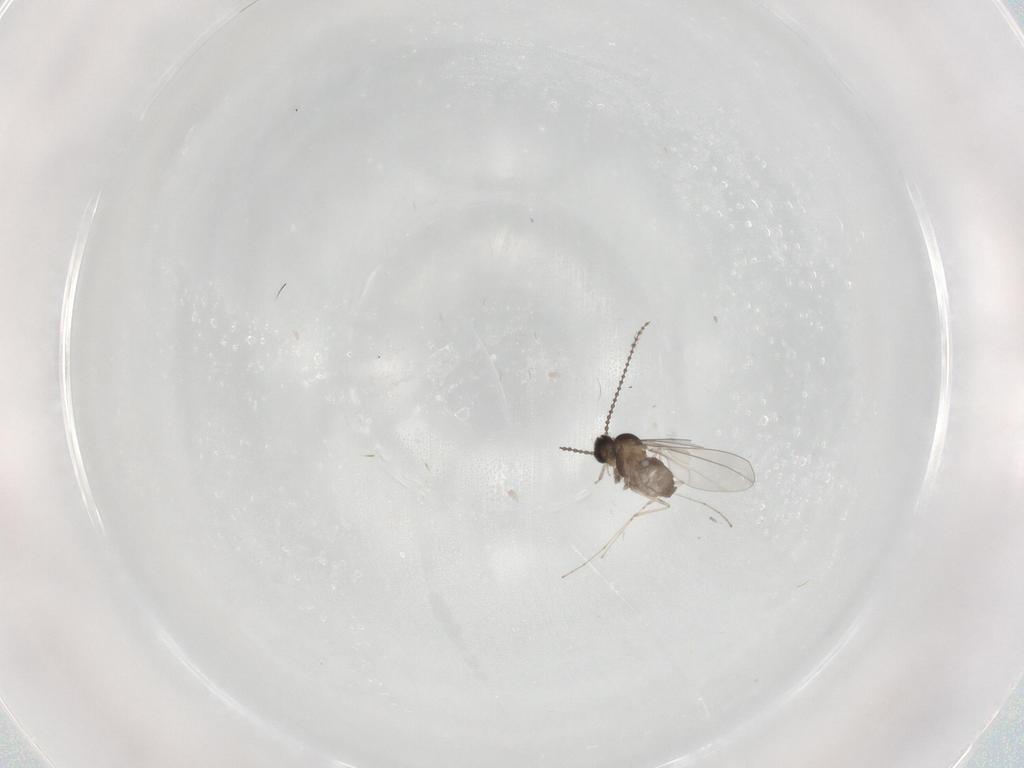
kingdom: Animalia
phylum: Arthropoda
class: Insecta
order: Diptera
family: Cecidomyiidae
